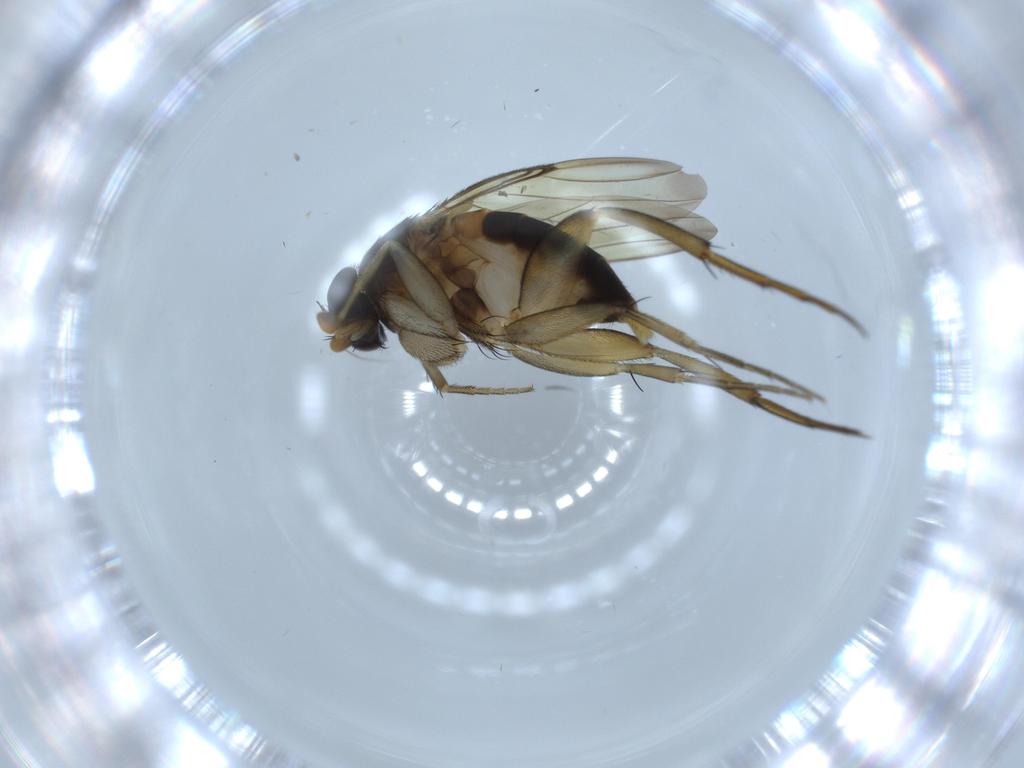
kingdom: Animalia
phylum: Arthropoda
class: Insecta
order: Diptera
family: Phoridae
